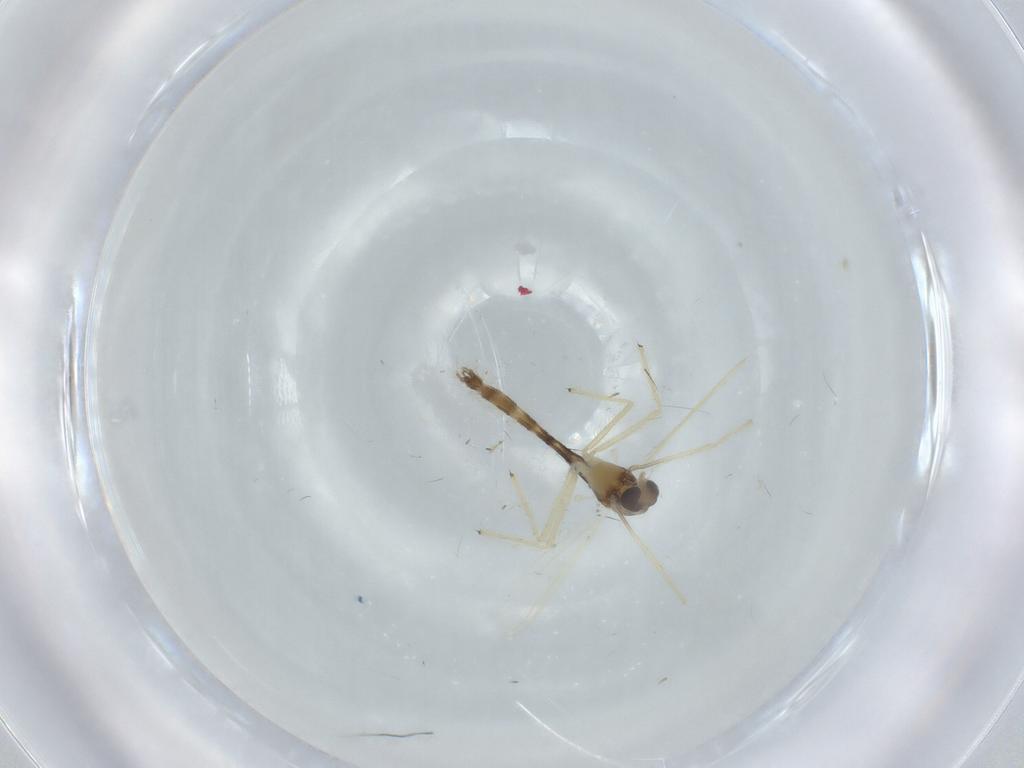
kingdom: Animalia
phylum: Arthropoda
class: Insecta
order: Diptera
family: Chironomidae
